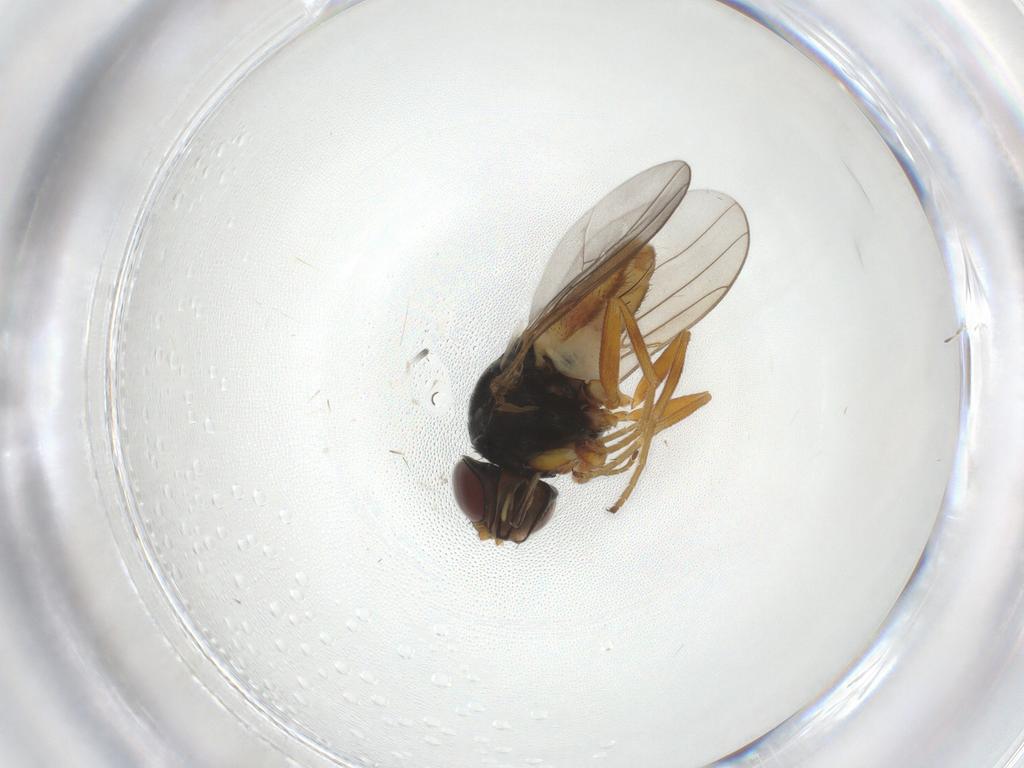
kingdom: Animalia
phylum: Arthropoda
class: Insecta
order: Diptera
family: Chloropidae
